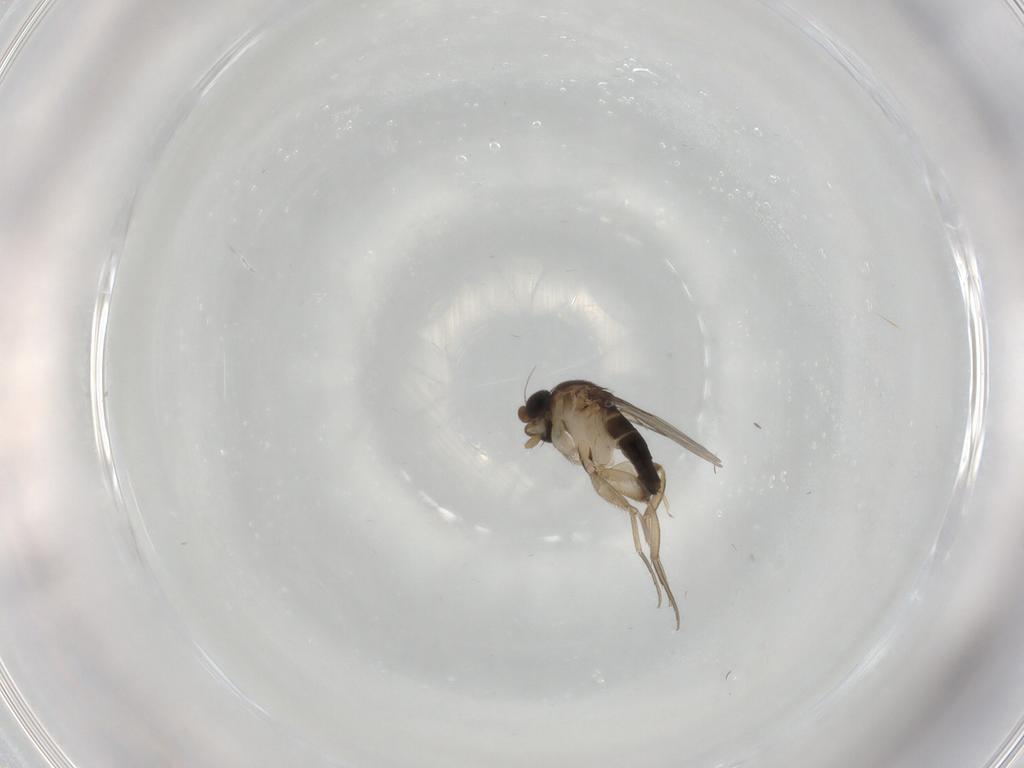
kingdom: Animalia
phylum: Arthropoda
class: Insecta
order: Diptera
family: Phoridae
